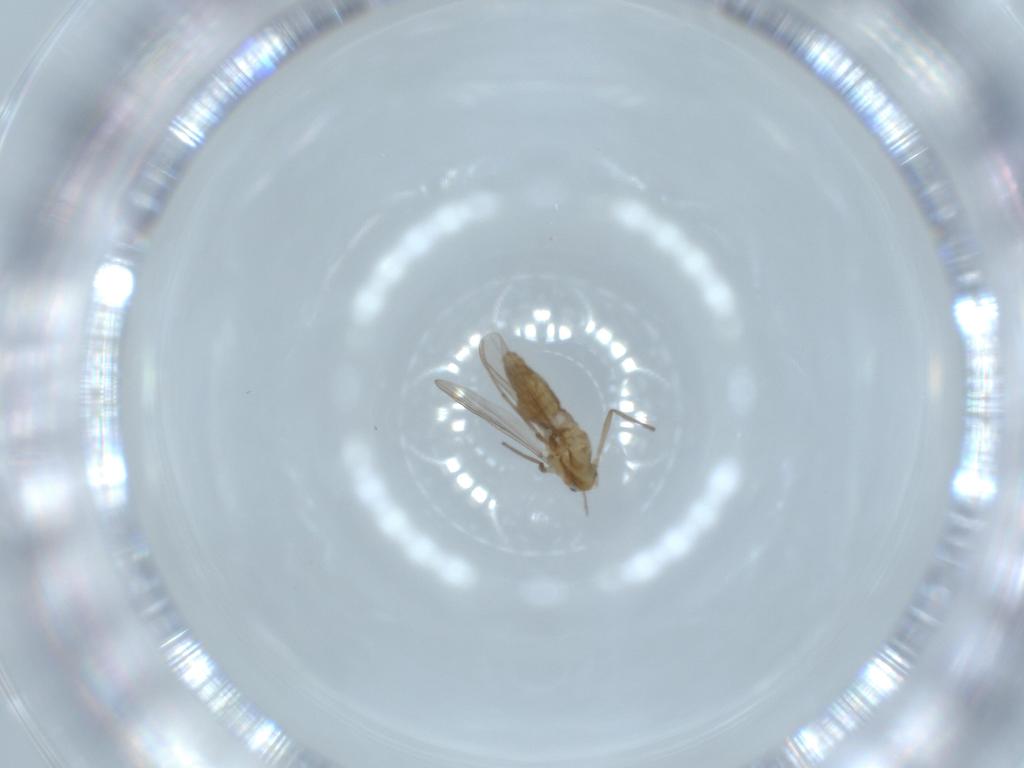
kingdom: Animalia
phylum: Arthropoda
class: Insecta
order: Diptera
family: Chironomidae
